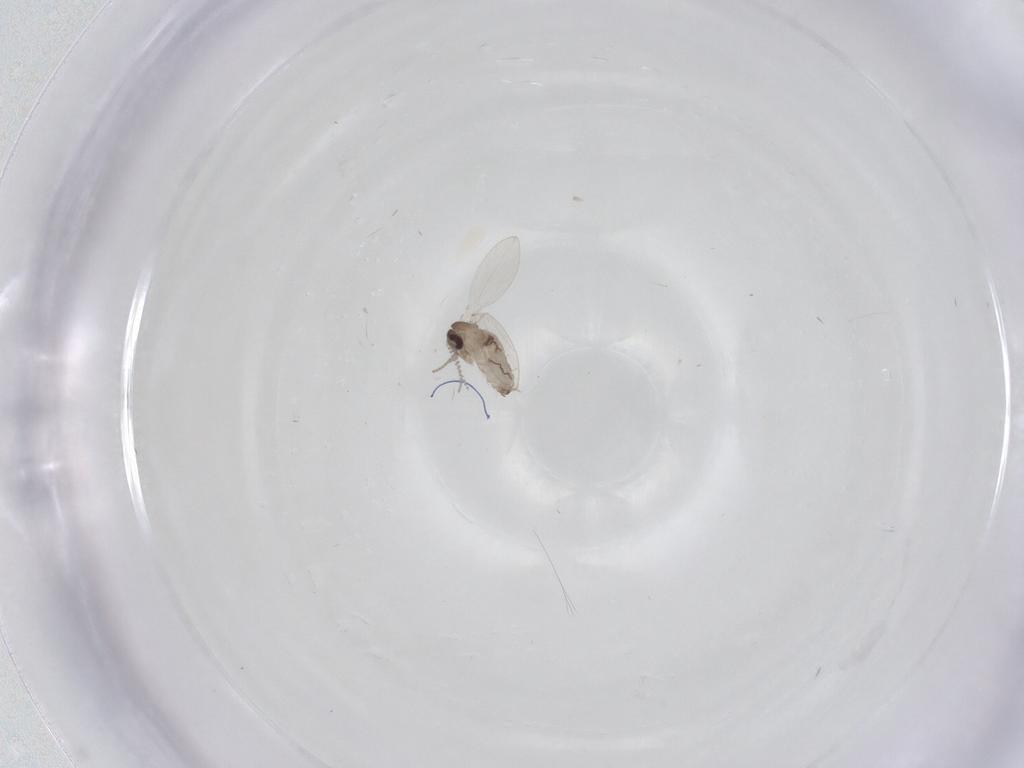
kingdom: Animalia
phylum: Arthropoda
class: Insecta
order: Diptera
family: Psychodidae
